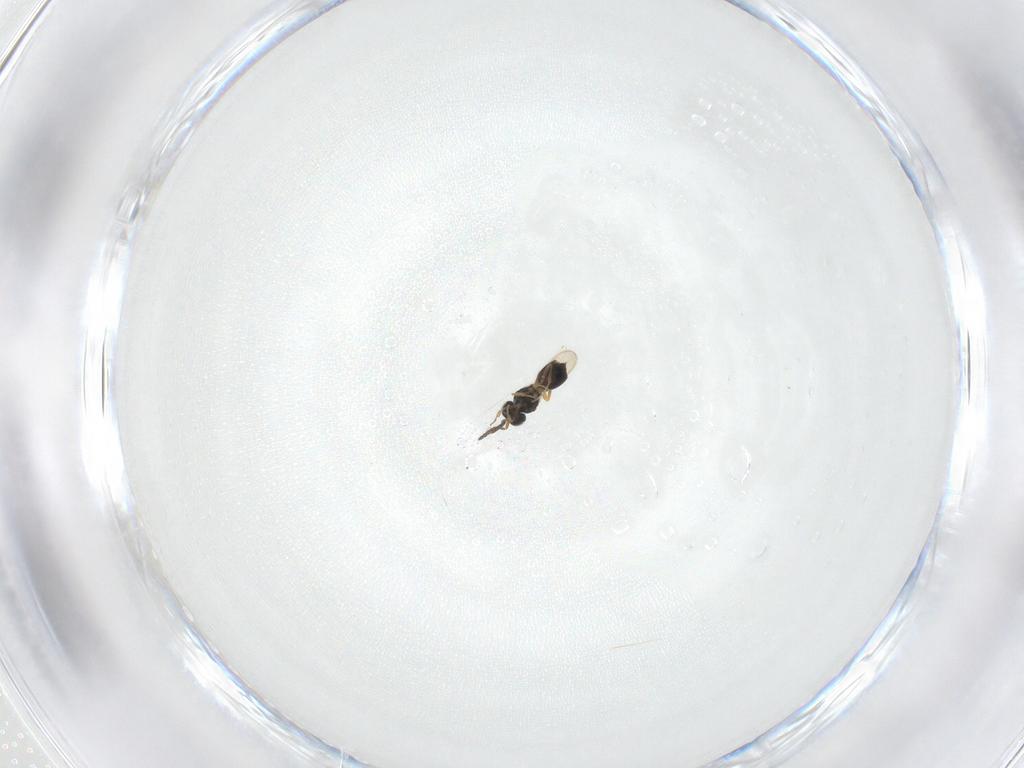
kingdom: Animalia
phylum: Arthropoda
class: Insecta
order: Hymenoptera
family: Scelionidae
